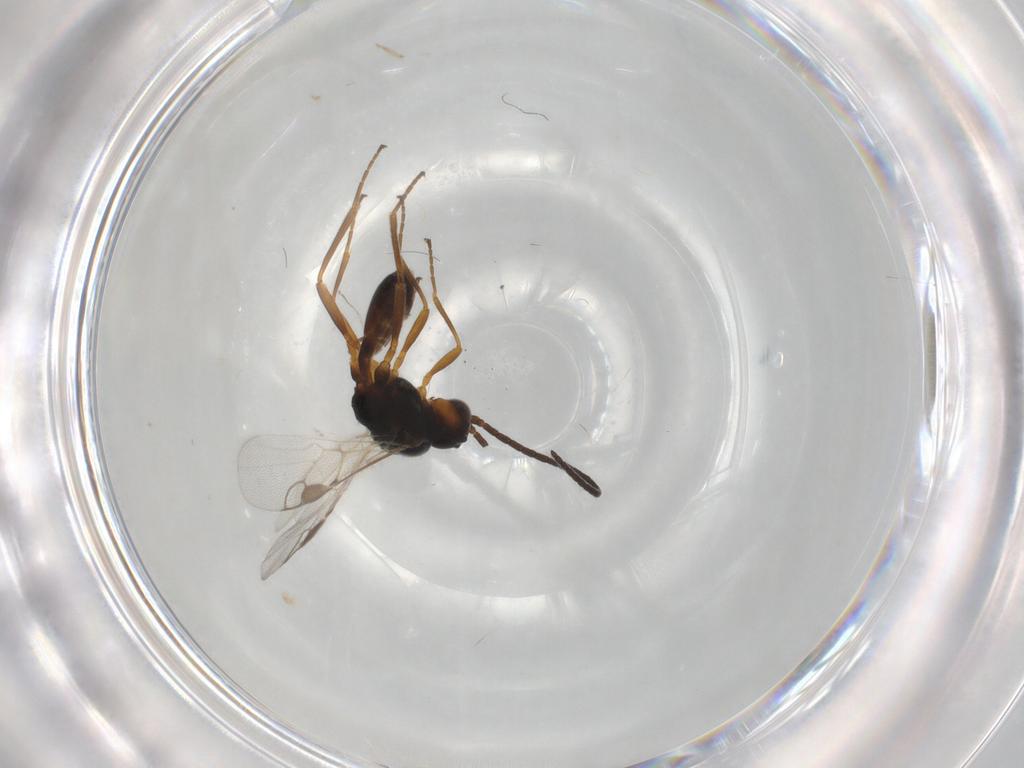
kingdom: Animalia
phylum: Arthropoda
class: Insecta
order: Hymenoptera
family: Braconidae
